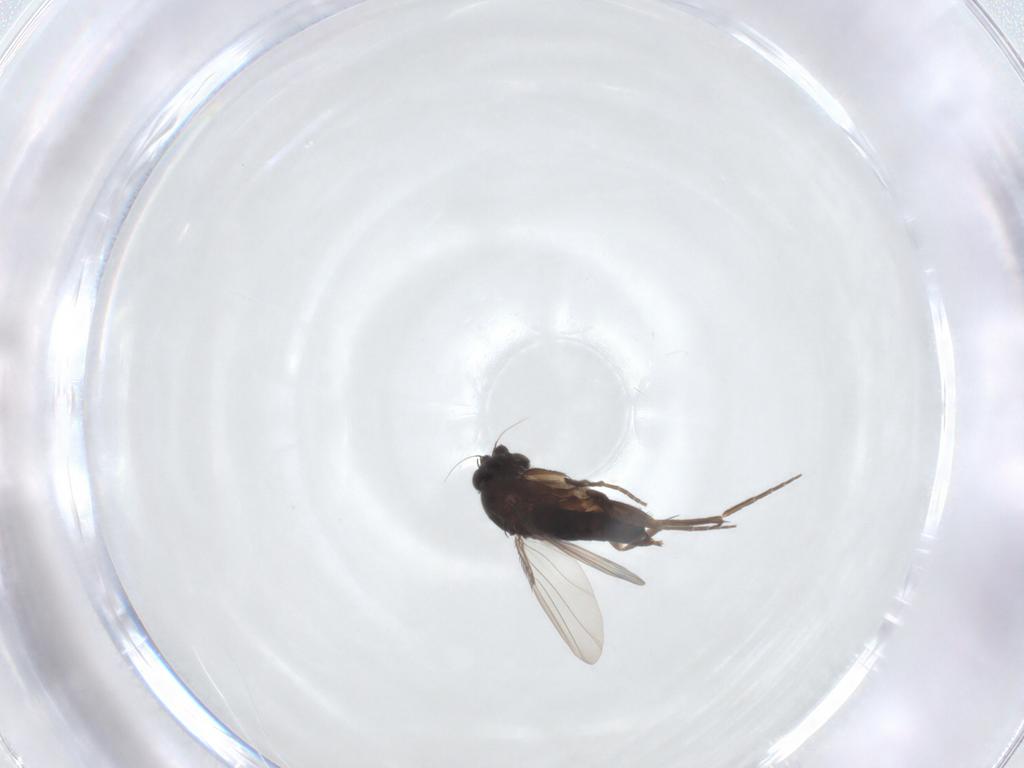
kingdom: Animalia
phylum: Arthropoda
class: Insecta
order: Diptera
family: Phoridae
